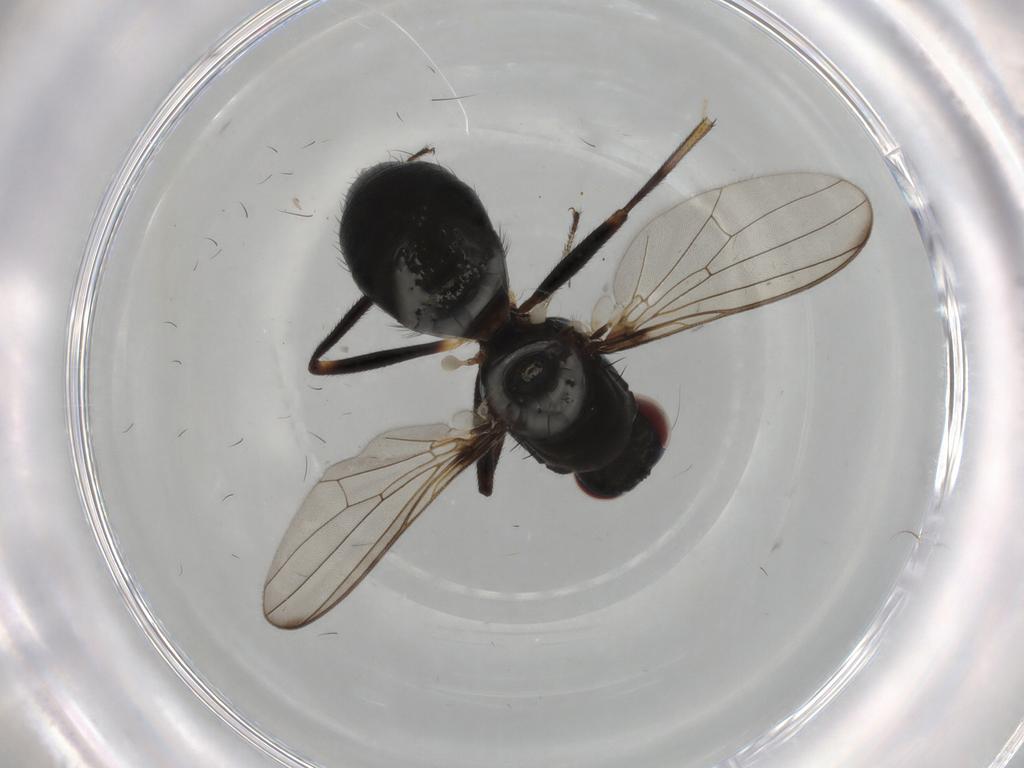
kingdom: Animalia
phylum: Arthropoda
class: Insecta
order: Diptera
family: Sepsidae
